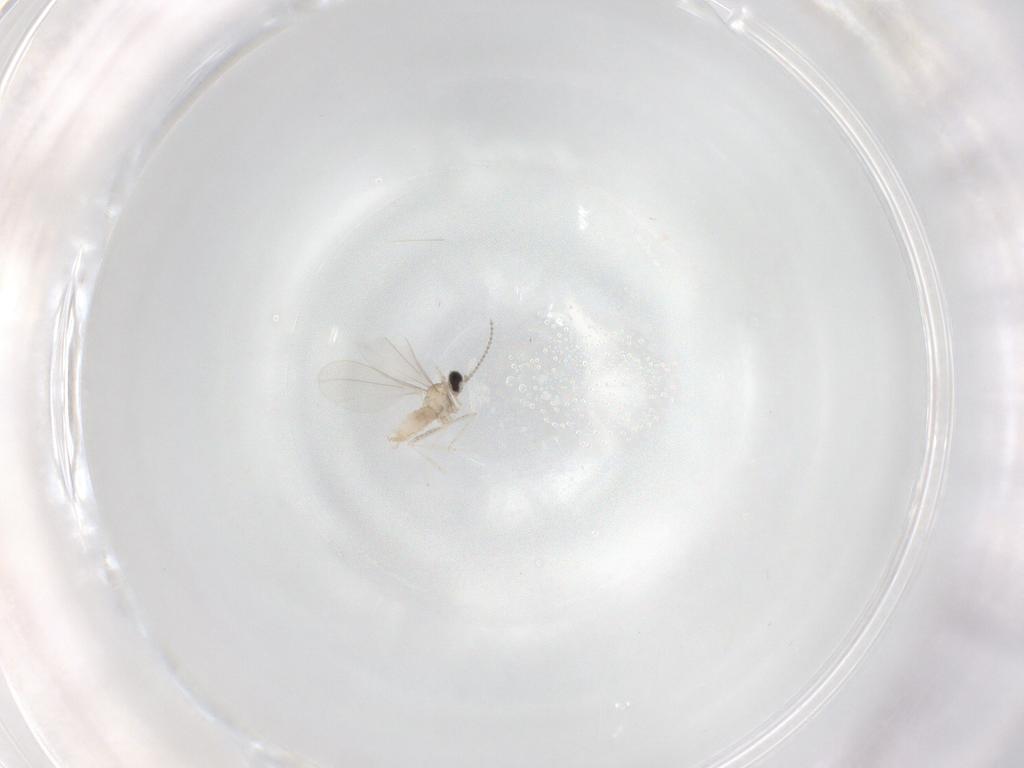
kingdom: Animalia
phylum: Arthropoda
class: Insecta
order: Diptera
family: Cecidomyiidae
